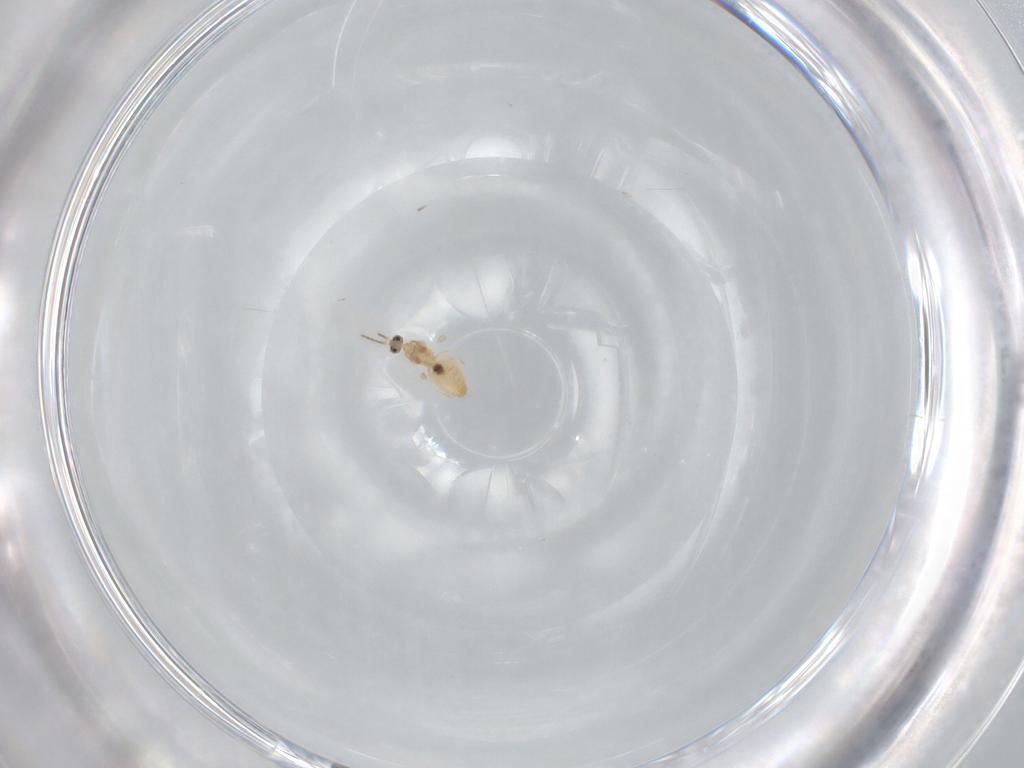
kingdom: Animalia
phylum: Arthropoda
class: Insecta
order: Diptera
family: Cecidomyiidae
